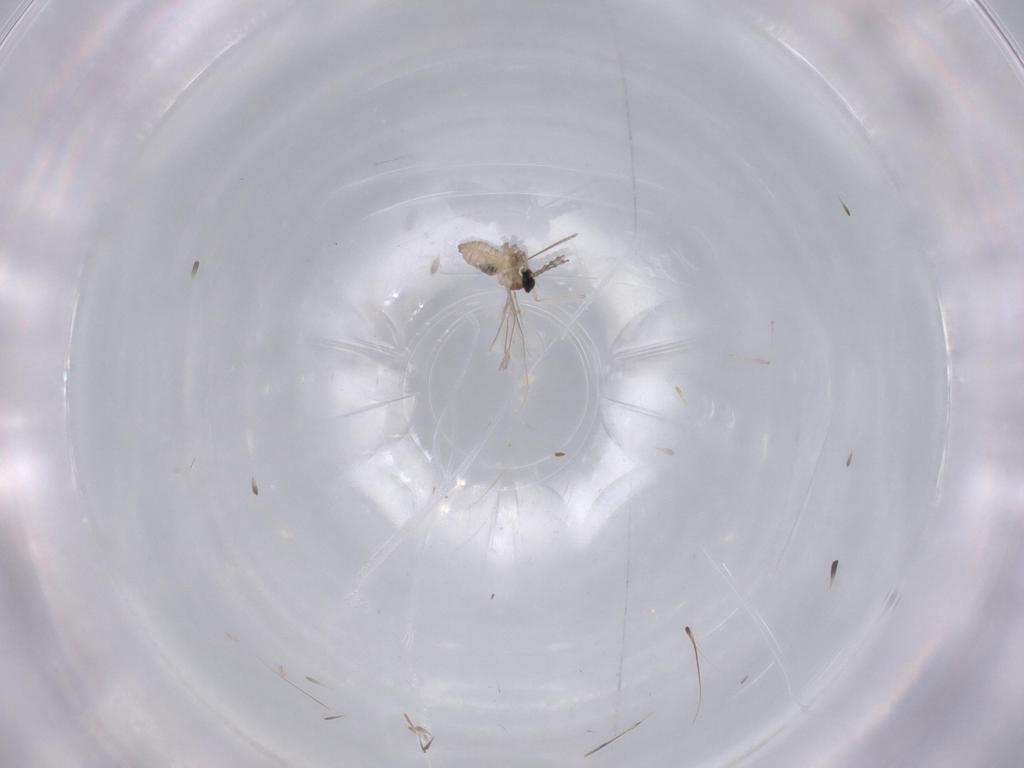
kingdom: Animalia
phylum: Arthropoda
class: Insecta
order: Diptera
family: Cecidomyiidae
